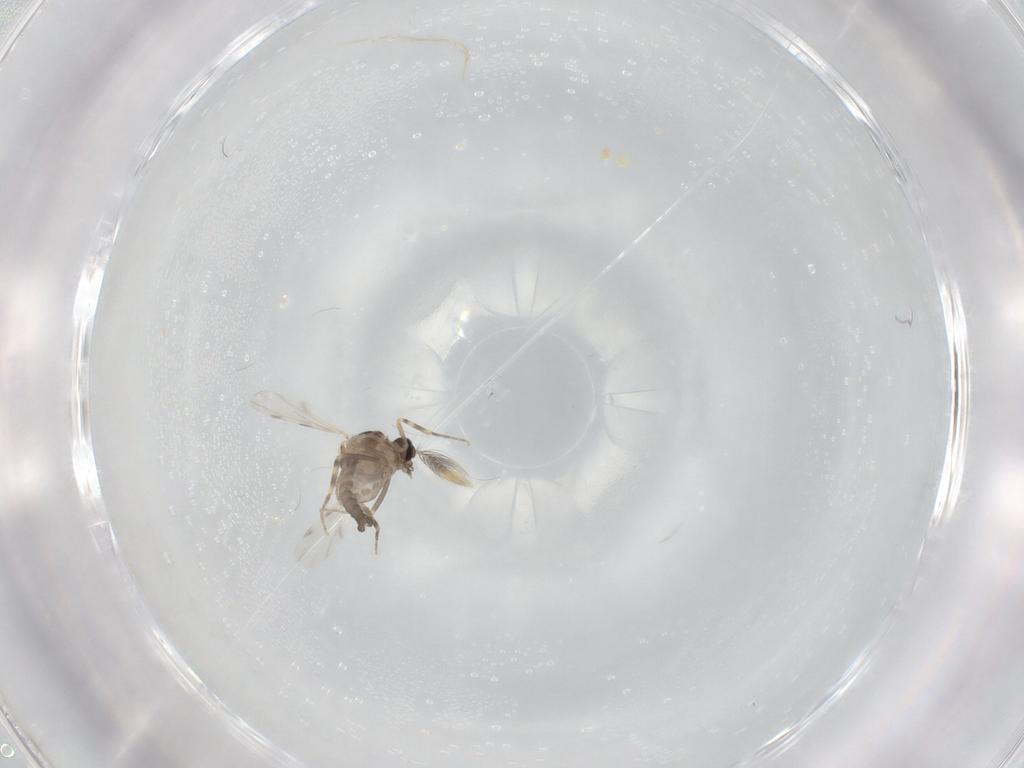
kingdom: Animalia
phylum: Arthropoda
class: Insecta
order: Diptera
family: Ceratopogonidae
